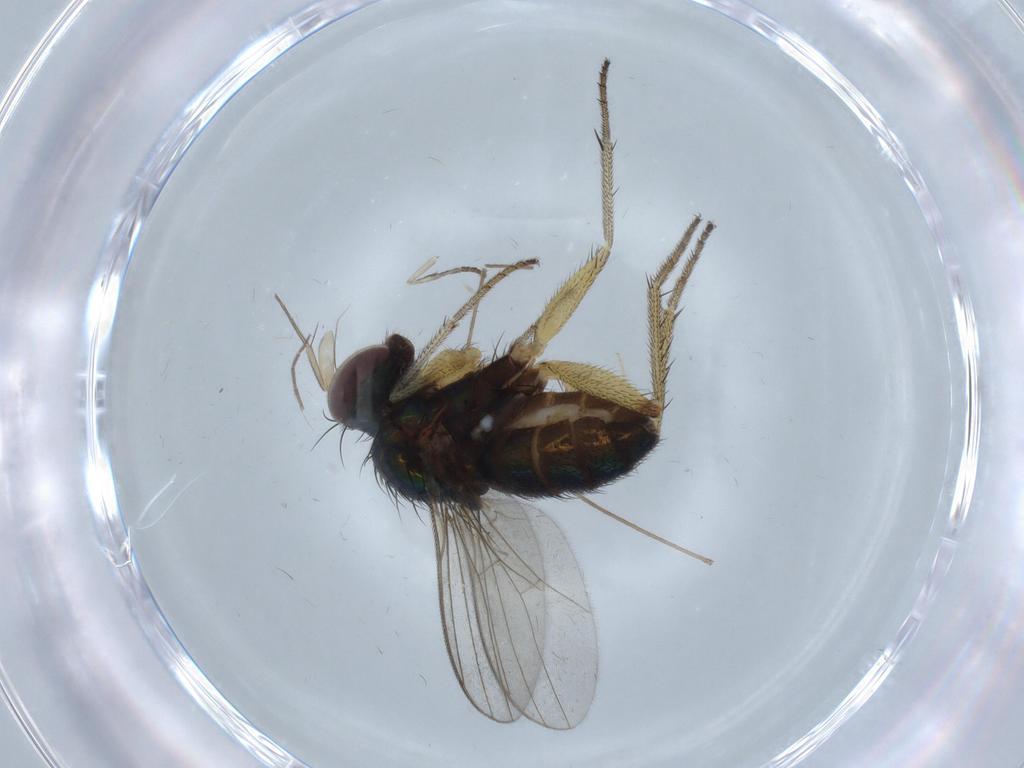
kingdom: Animalia
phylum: Arthropoda
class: Insecta
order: Diptera
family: Chironomidae
